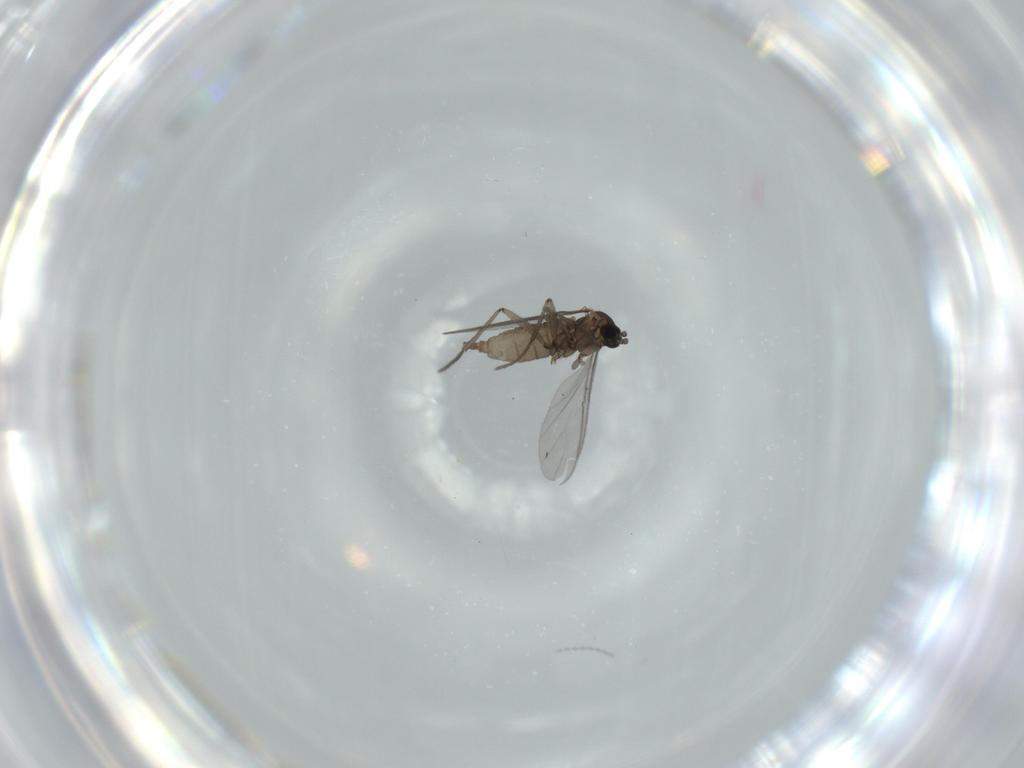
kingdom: Animalia
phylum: Arthropoda
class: Insecta
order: Diptera
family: Sciaridae
